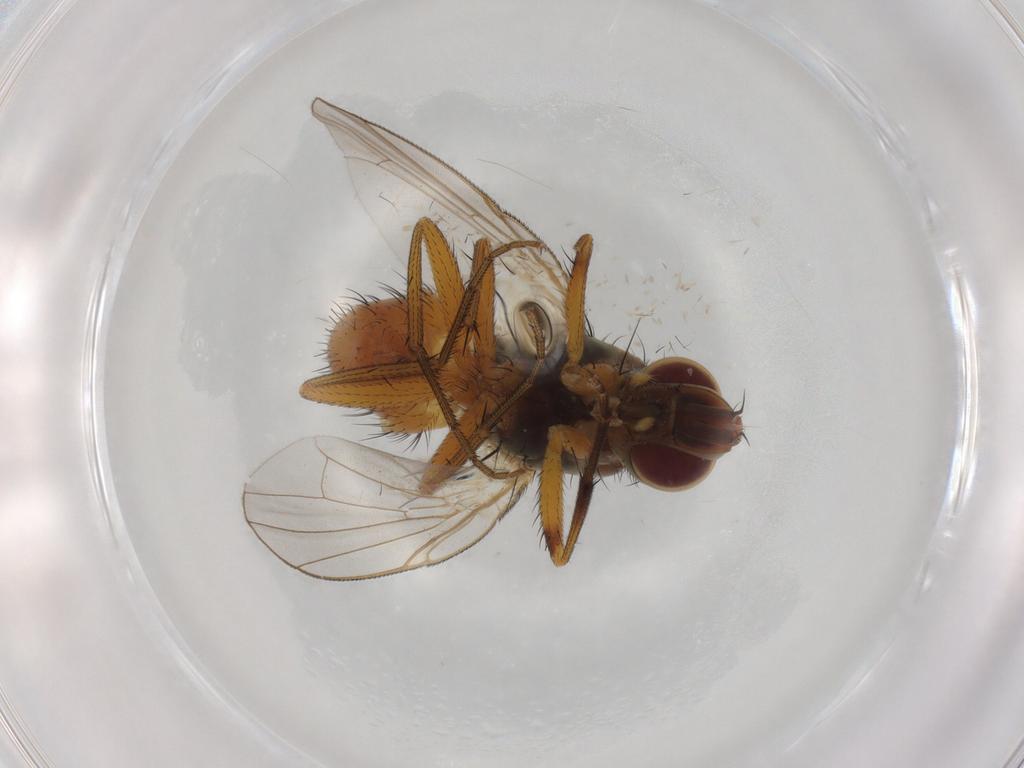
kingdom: Animalia
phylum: Arthropoda
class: Insecta
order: Diptera
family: Muscidae
